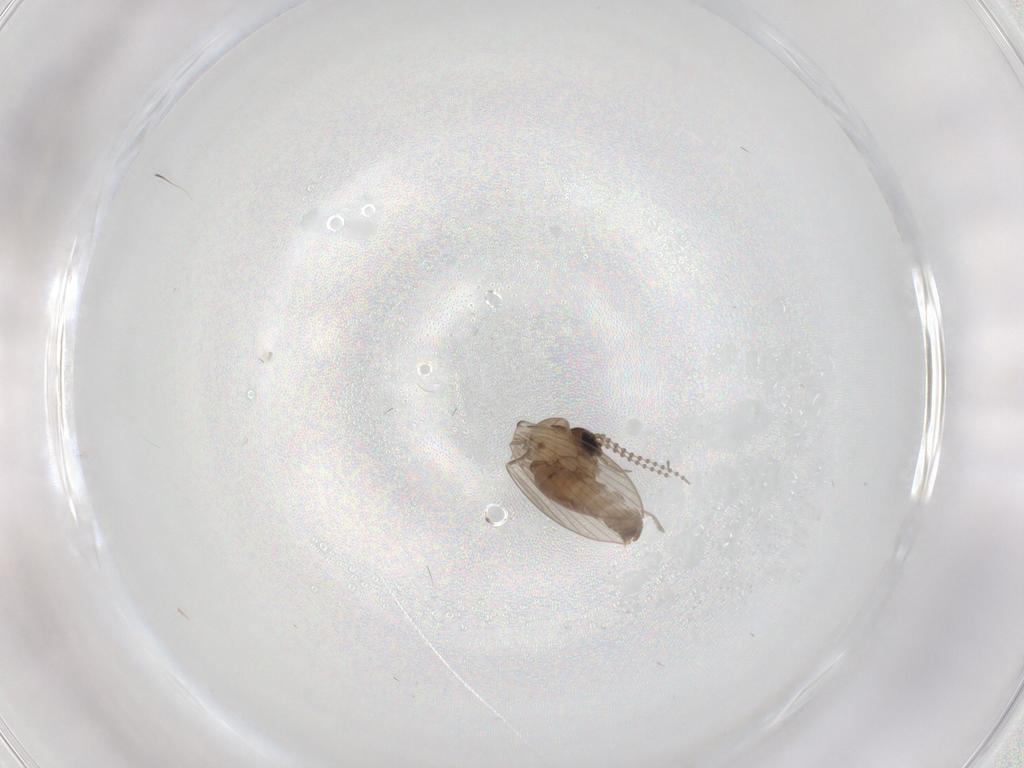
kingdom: Animalia
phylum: Arthropoda
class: Insecta
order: Diptera
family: Psychodidae
